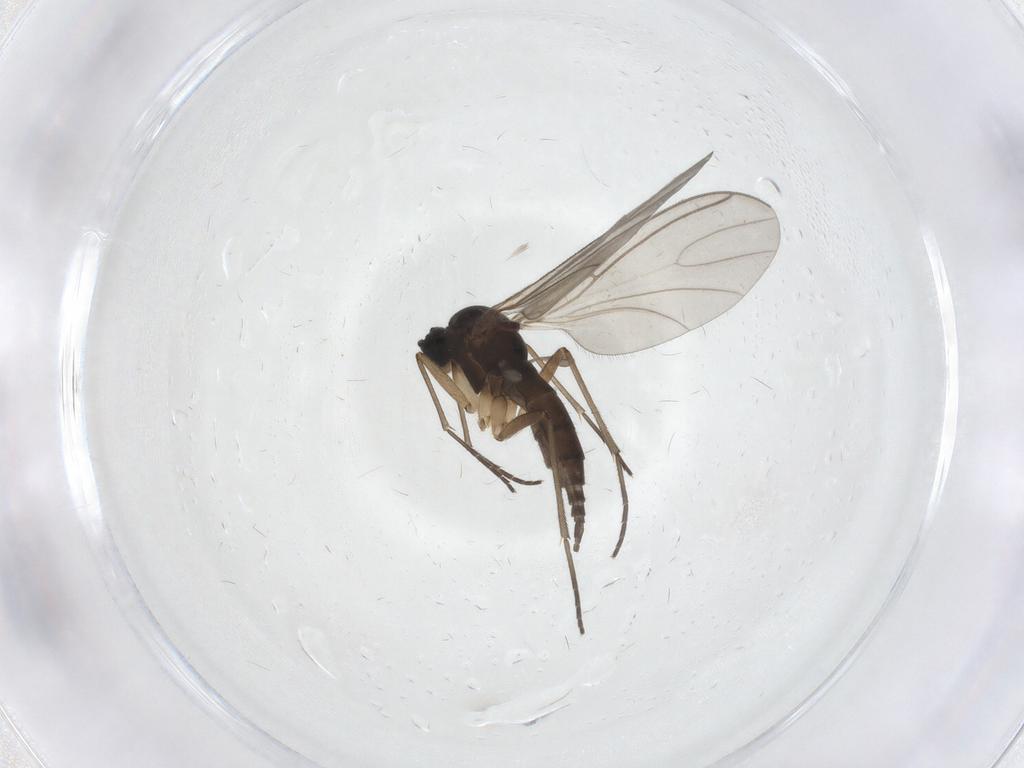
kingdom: Animalia
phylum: Arthropoda
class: Insecta
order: Diptera
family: Sciaridae
